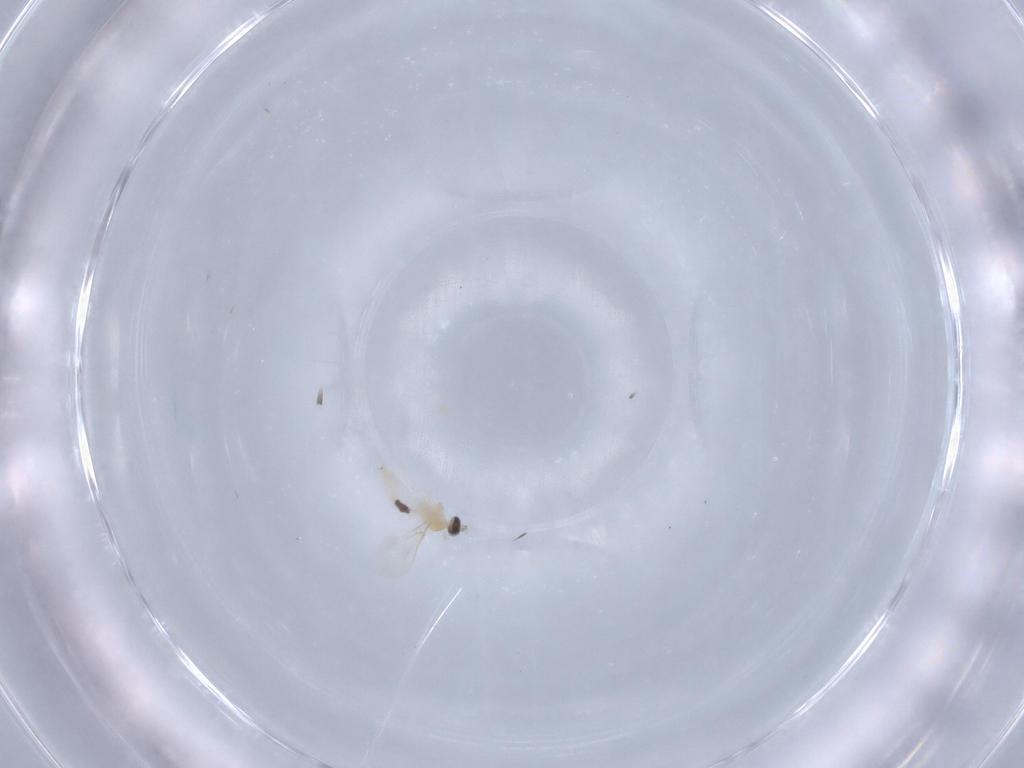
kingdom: Animalia
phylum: Arthropoda
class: Insecta
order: Diptera
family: Cecidomyiidae
